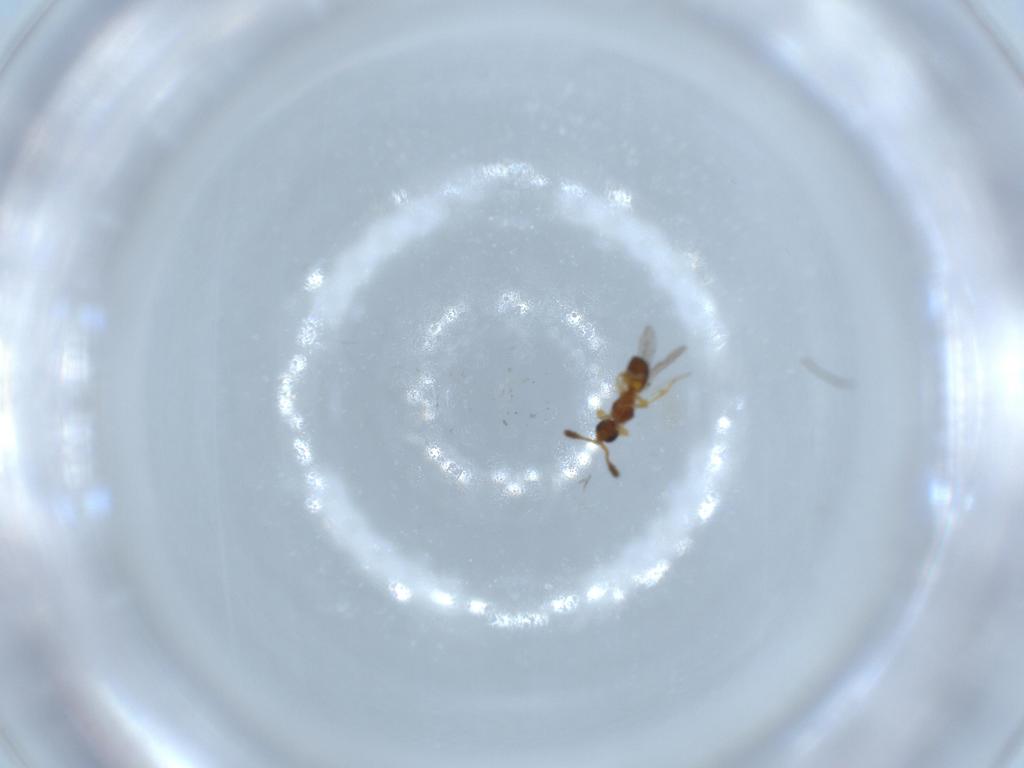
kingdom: Animalia
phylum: Arthropoda
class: Insecta
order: Hymenoptera
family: Diapriidae
